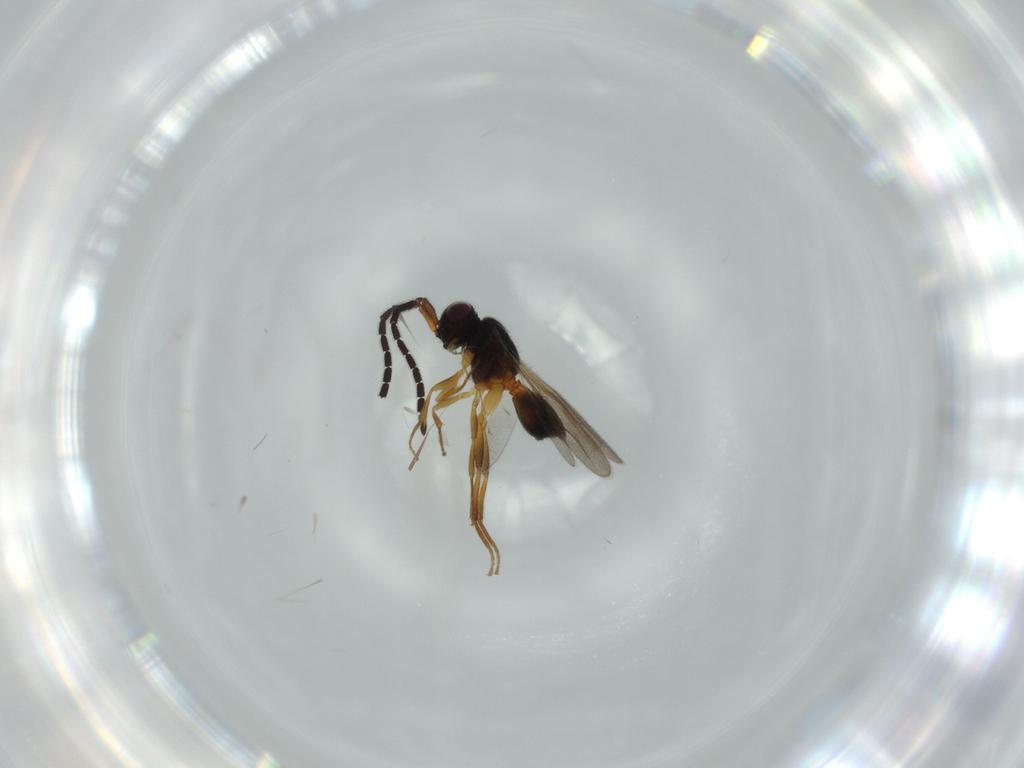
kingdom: Animalia
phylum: Arthropoda
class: Insecta
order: Hymenoptera
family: Megaspilidae
